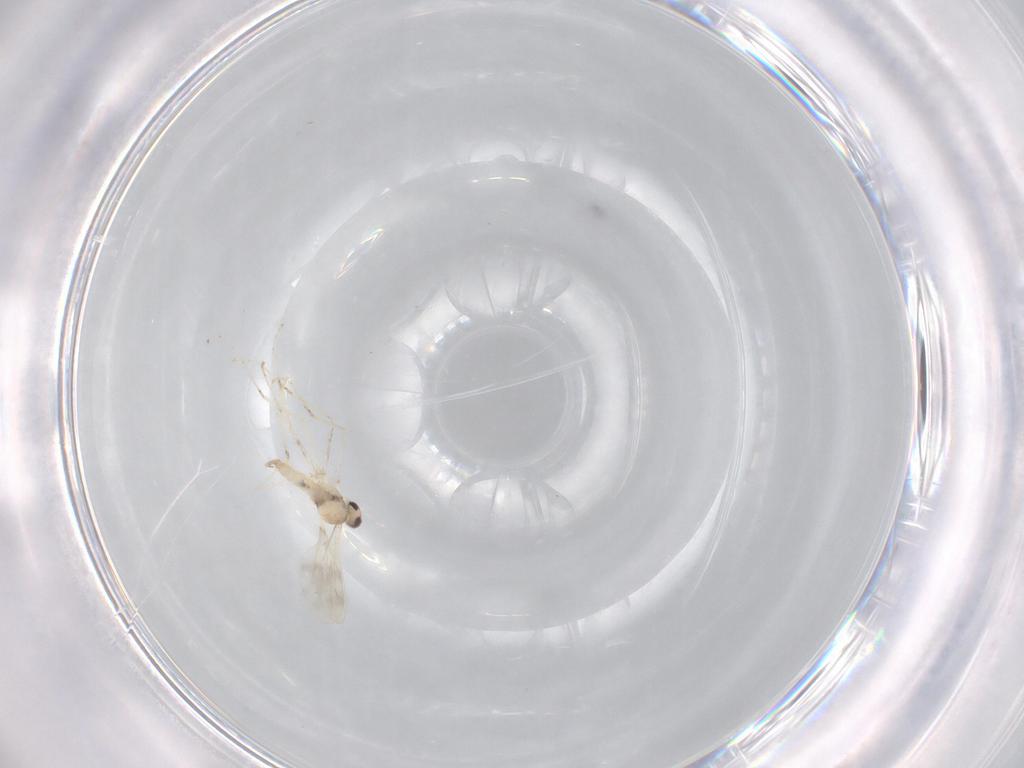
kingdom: Animalia
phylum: Arthropoda
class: Insecta
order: Diptera
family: Cecidomyiidae
